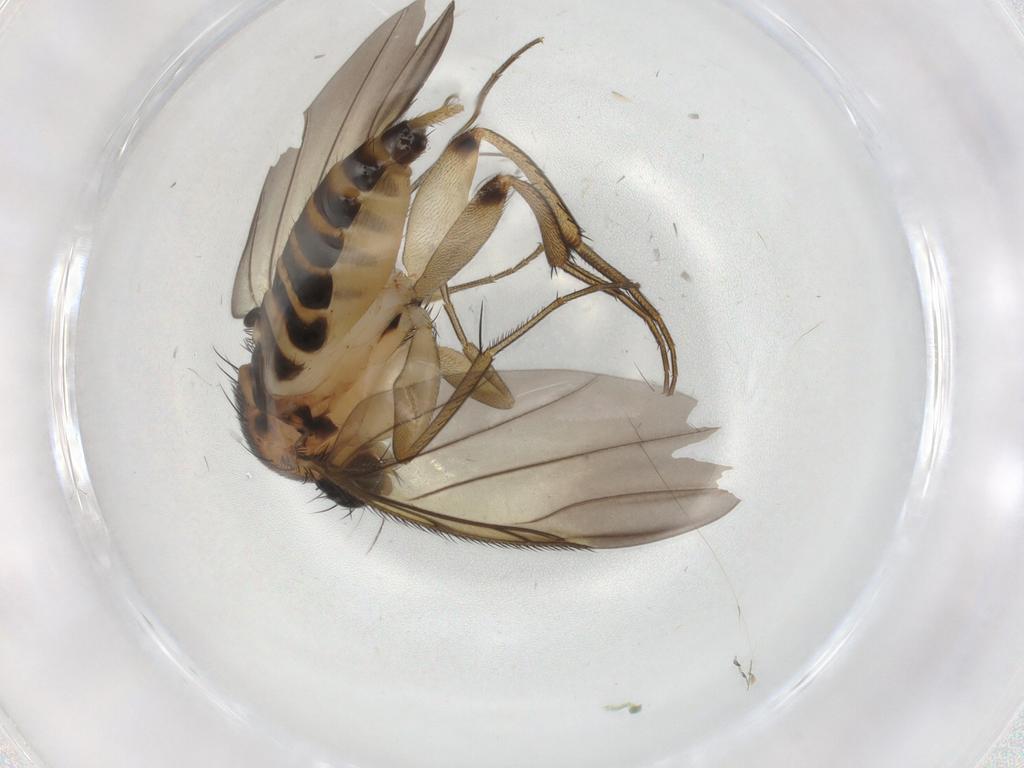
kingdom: Animalia
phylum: Arthropoda
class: Insecta
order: Diptera
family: Phoridae
